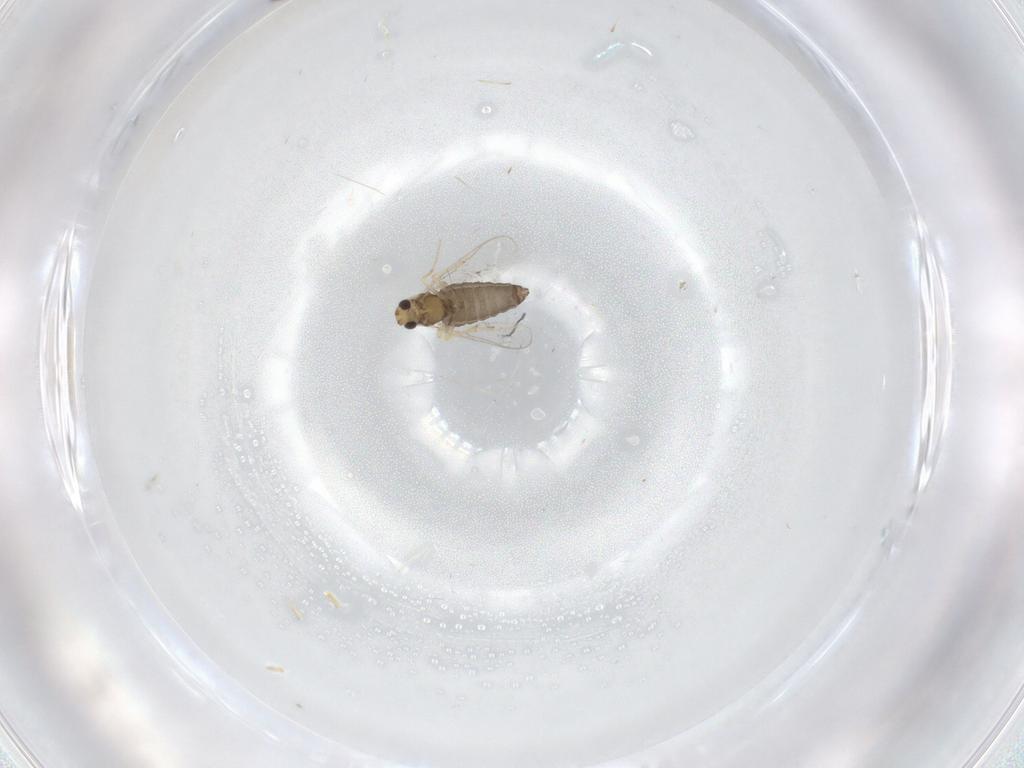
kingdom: Animalia
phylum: Arthropoda
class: Insecta
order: Diptera
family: Chironomidae
